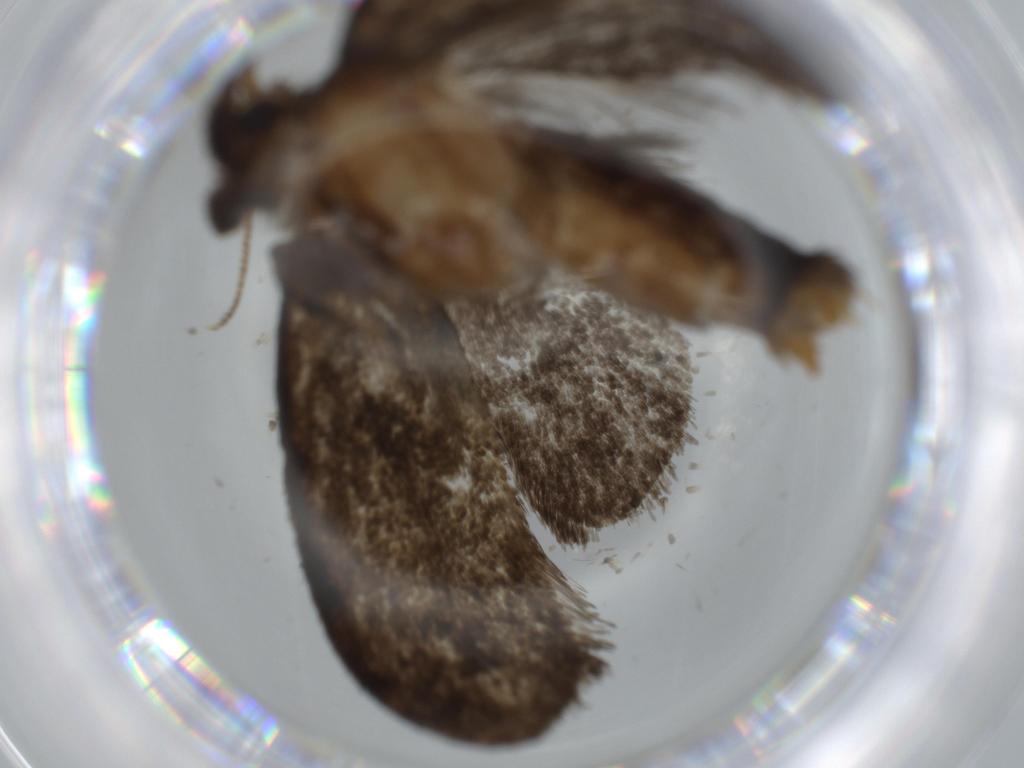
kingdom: Animalia
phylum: Arthropoda
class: Insecta
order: Lepidoptera
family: Tineidae
